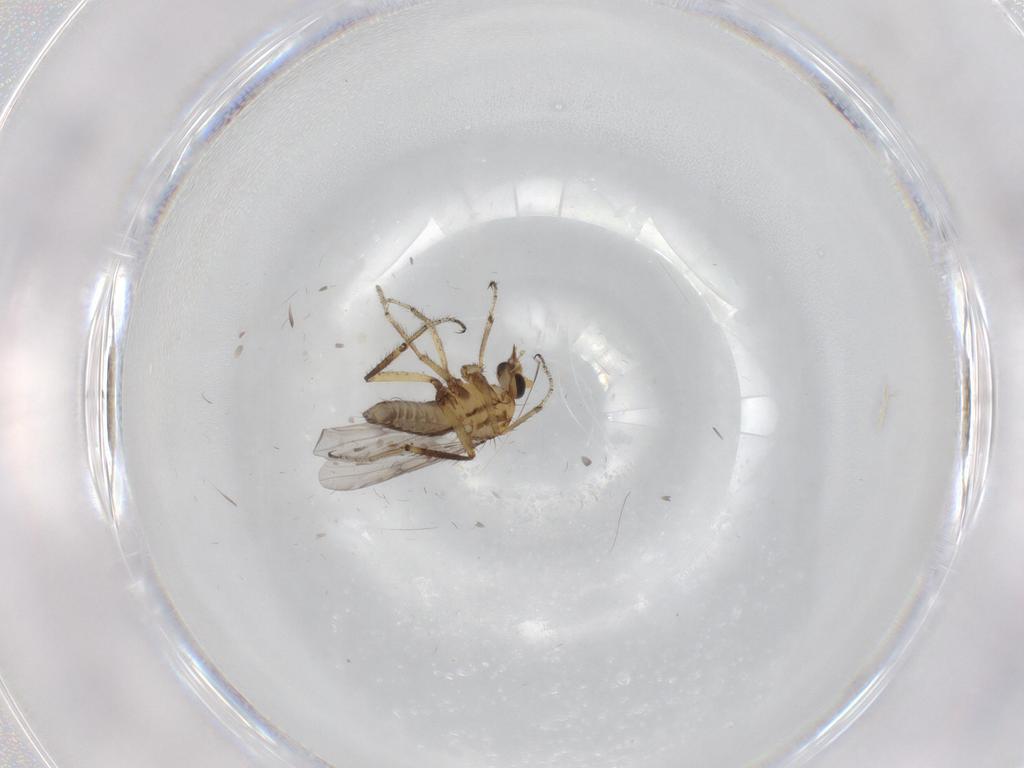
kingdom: Animalia
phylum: Arthropoda
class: Insecta
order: Diptera
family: Ceratopogonidae
